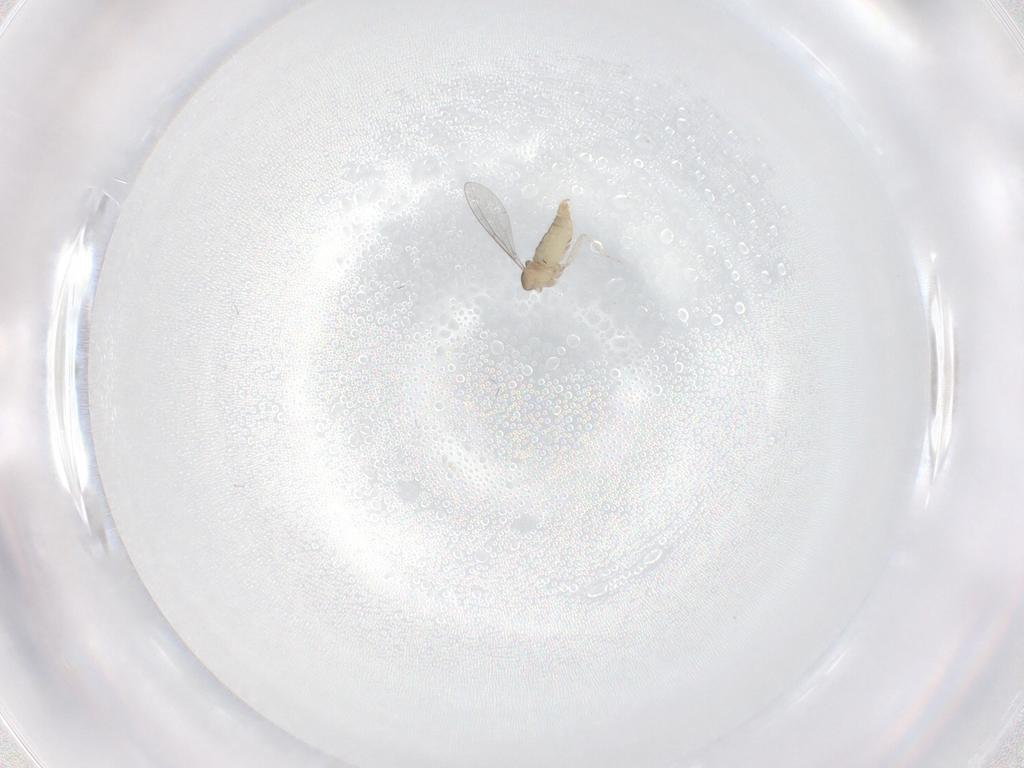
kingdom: Animalia
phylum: Arthropoda
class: Insecta
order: Diptera
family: Cecidomyiidae
